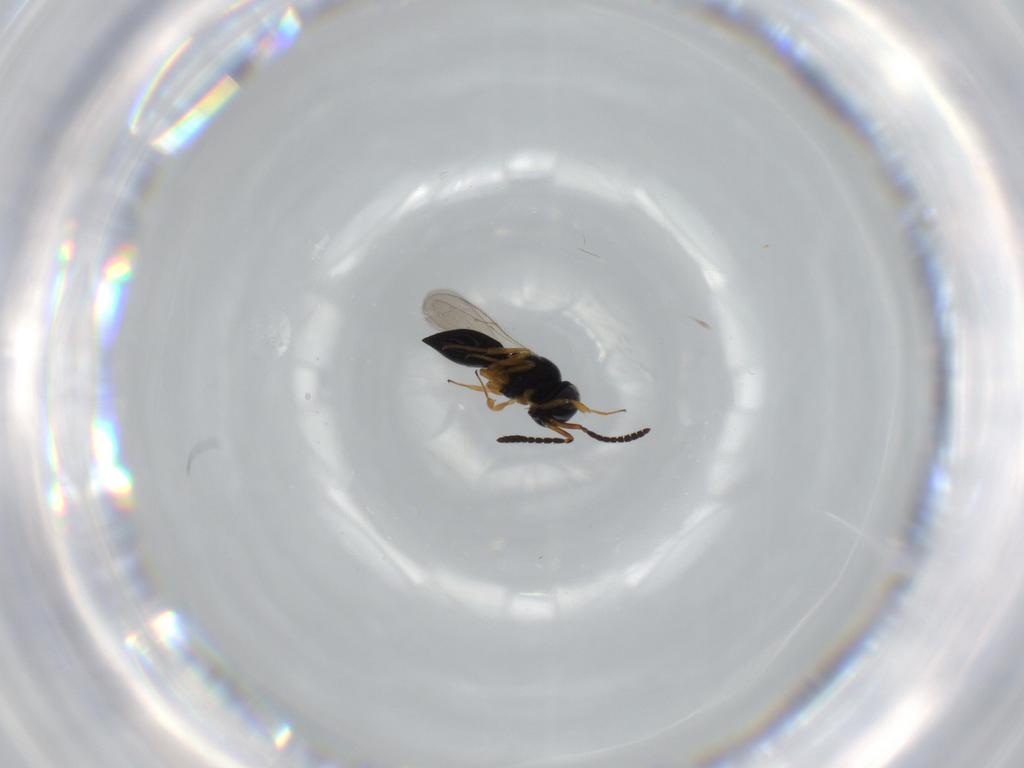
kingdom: Animalia
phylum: Arthropoda
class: Insecta
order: Hymenoptera
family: Scelionidae
